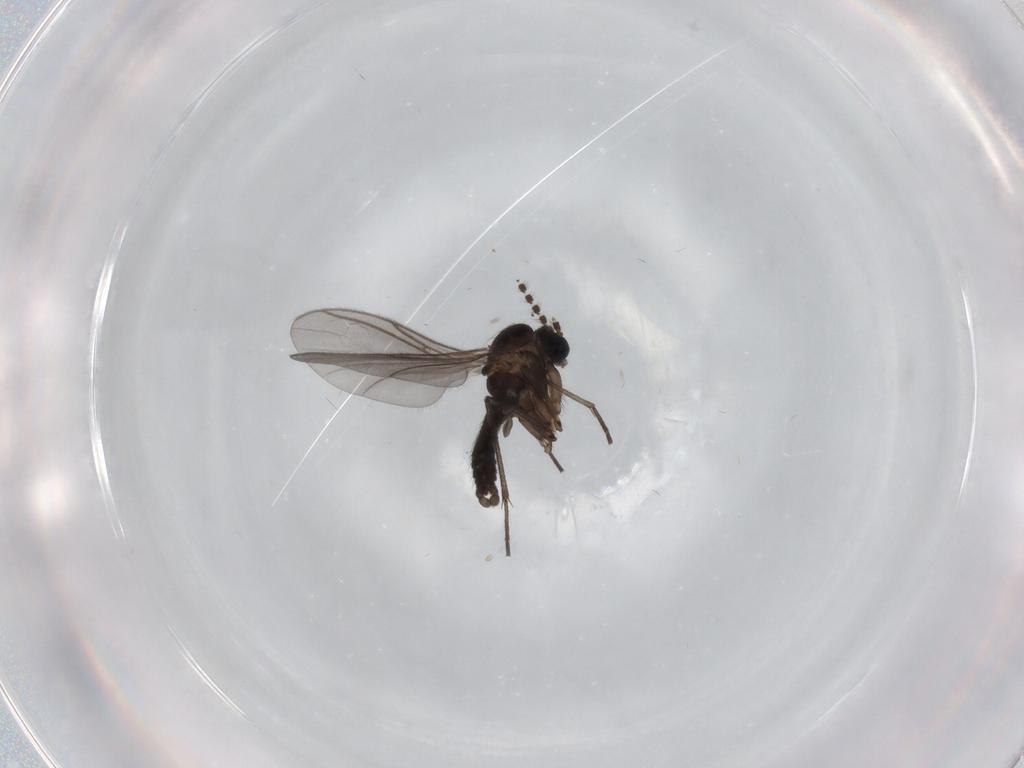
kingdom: Animalia
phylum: Arthropoda
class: Insecta
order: Diptera
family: Sciaridae
